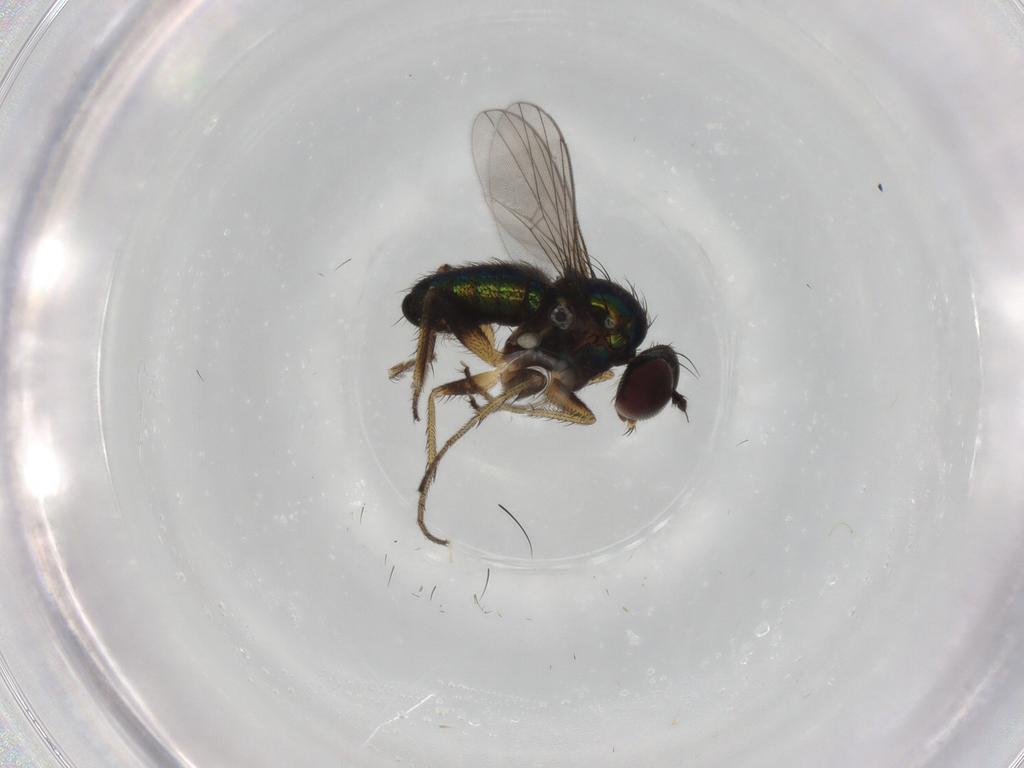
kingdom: Animalia
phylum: Arthropoda
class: Insecta
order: Diptera
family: Dolichopodidae
